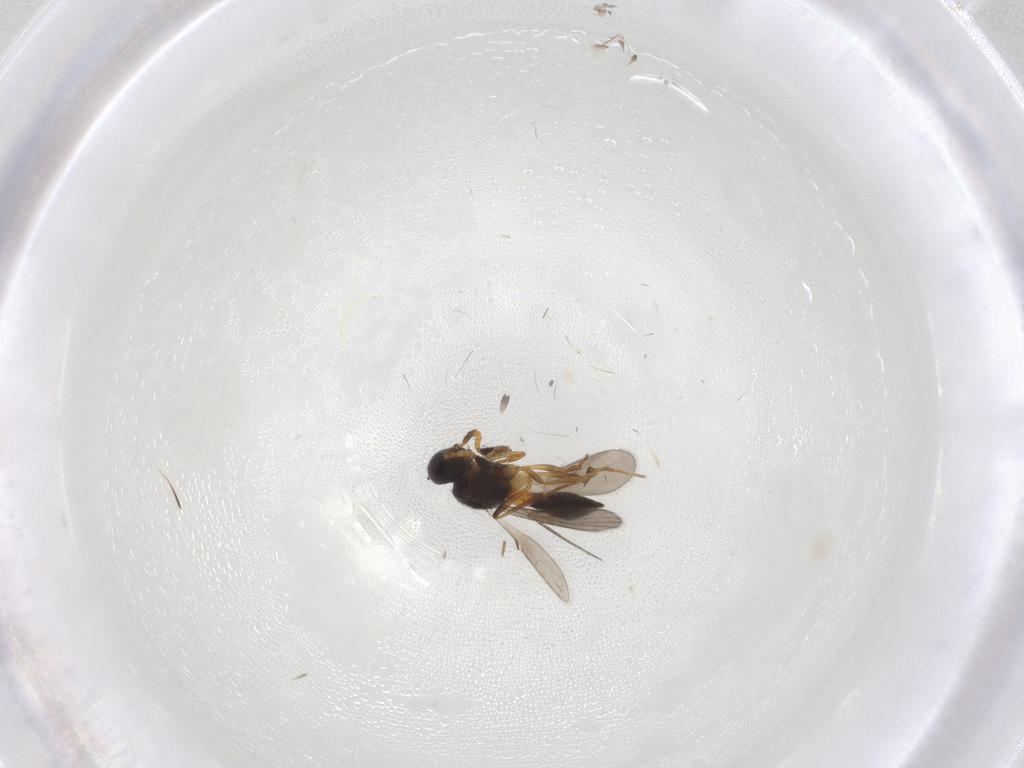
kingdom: Animalia
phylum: Arthropoda
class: Insecta
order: Hymenoptera
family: Scelionidae
